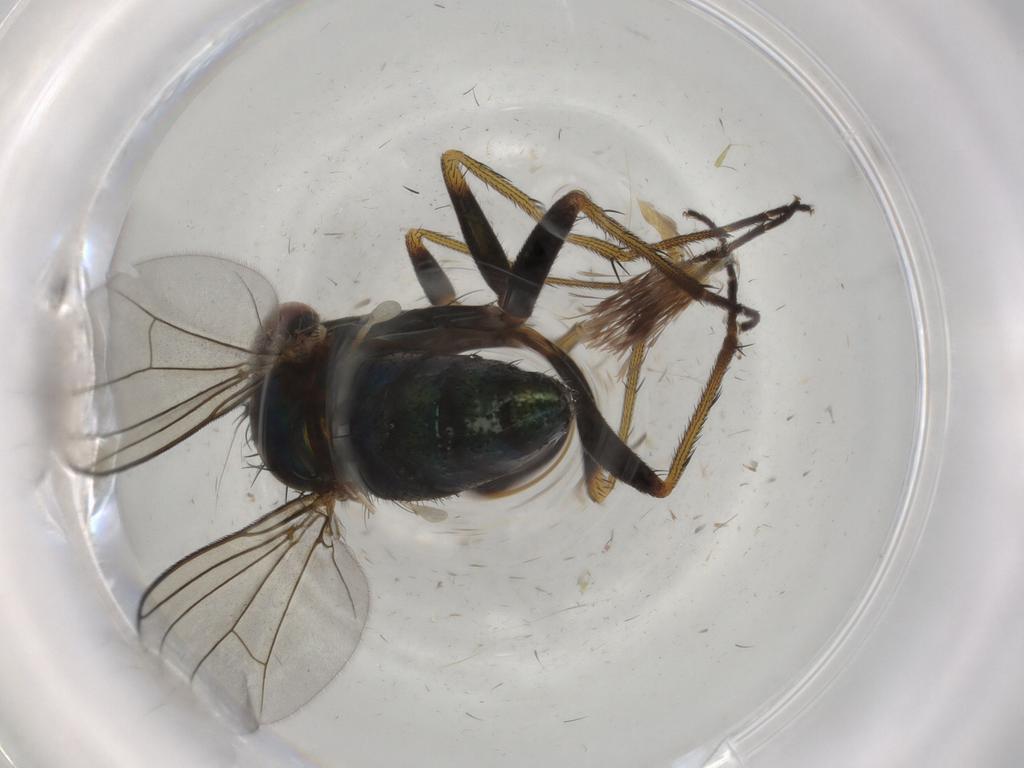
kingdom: Animalia
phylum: Arthropoda
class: Insecta
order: Diptera
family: Dolichopodidae
